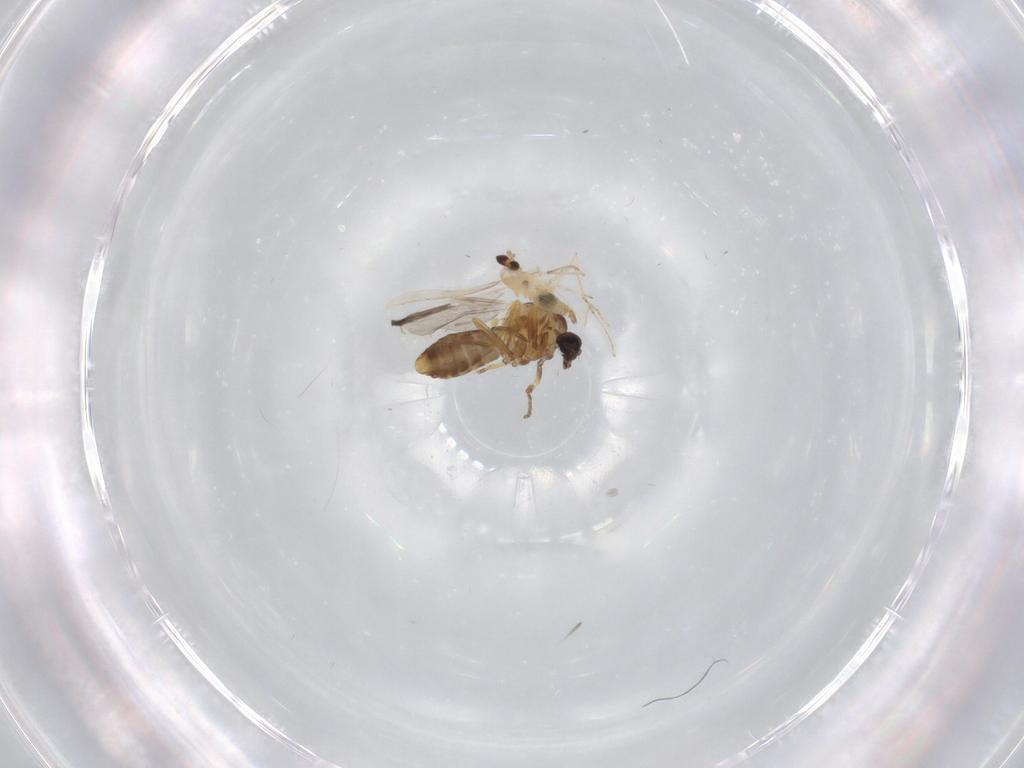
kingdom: Animalia
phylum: Arthropoda
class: Insecta
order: Diptera
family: Ceratopogonidae
